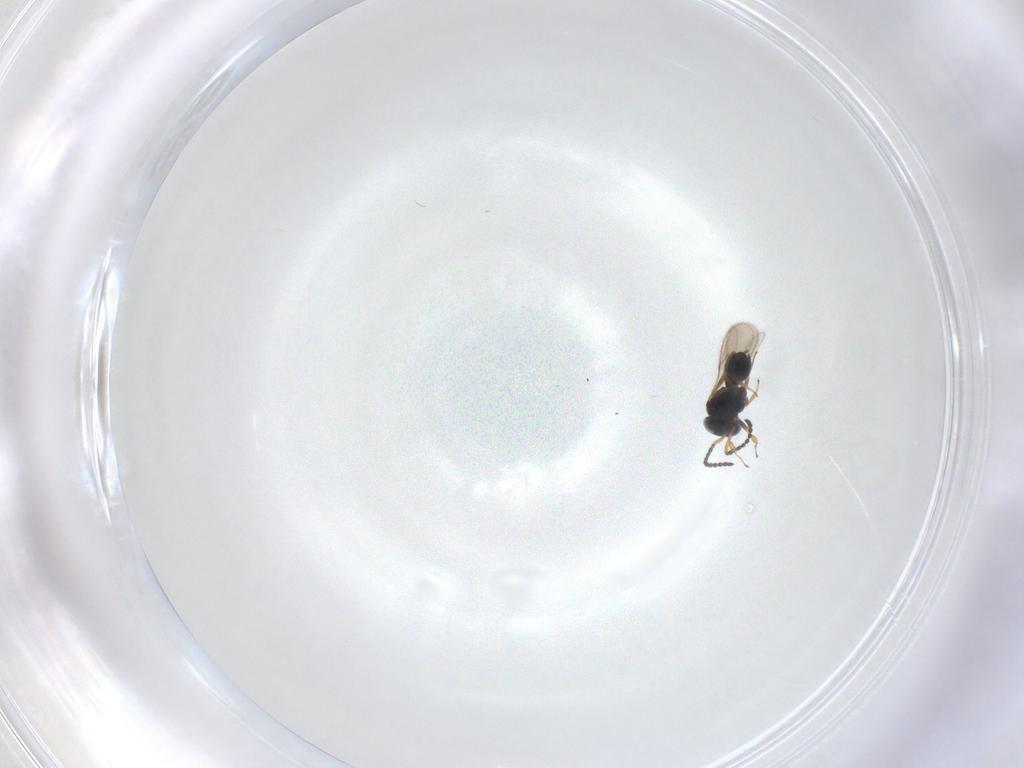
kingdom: Animalia
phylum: Arthropoda
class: Insecta
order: Hymenoptera
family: Scelionidae
